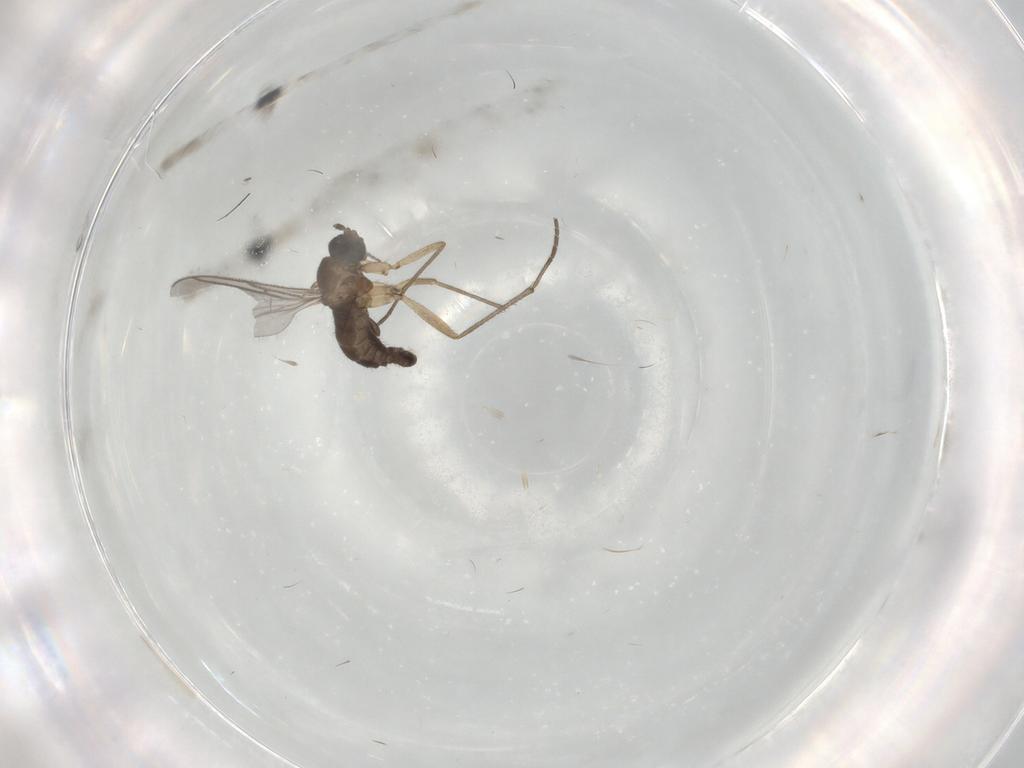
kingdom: Animalia
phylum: Arthropoda
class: Insecta
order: Diptera
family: Sciaridae
